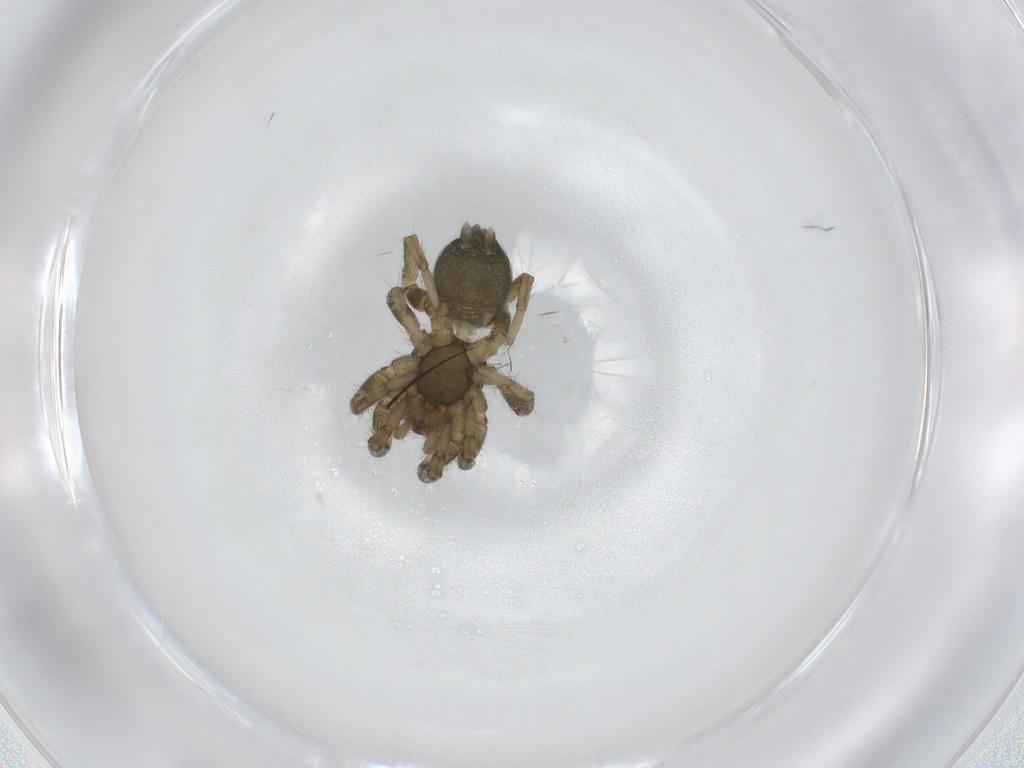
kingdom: Animalia
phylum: Arthropoda
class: Arachnida
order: Araneae
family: Gnaphosidae
